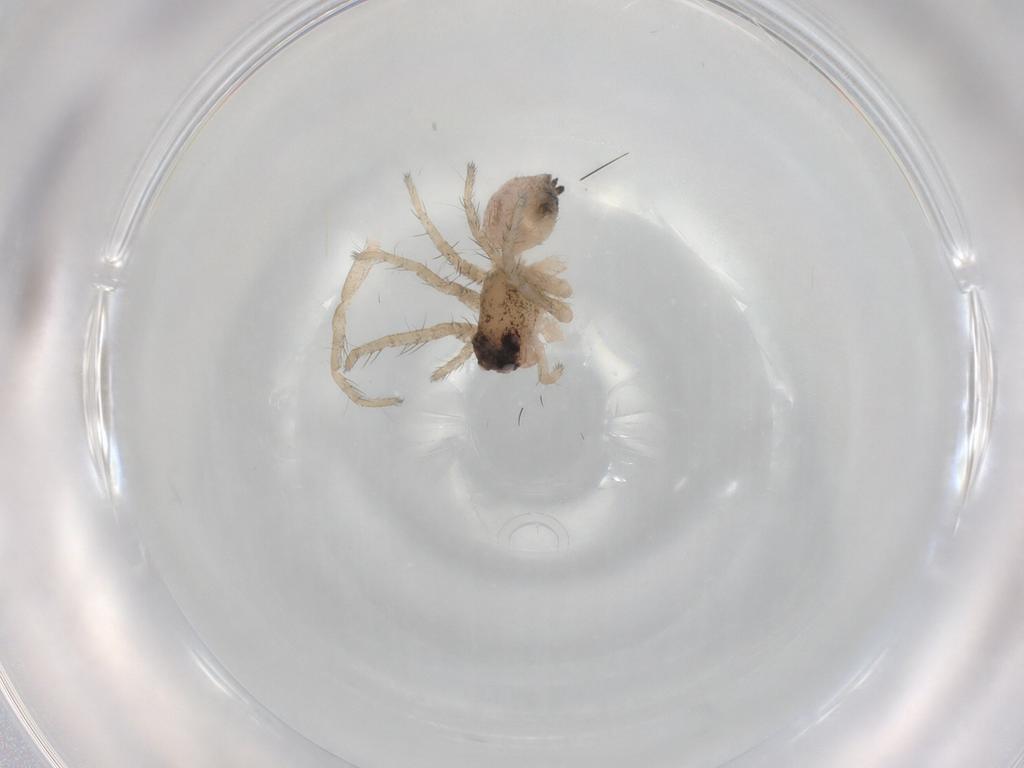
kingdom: Animalia
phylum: Arthropoda
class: Arachnida
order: Araneae
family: Lycosidae
